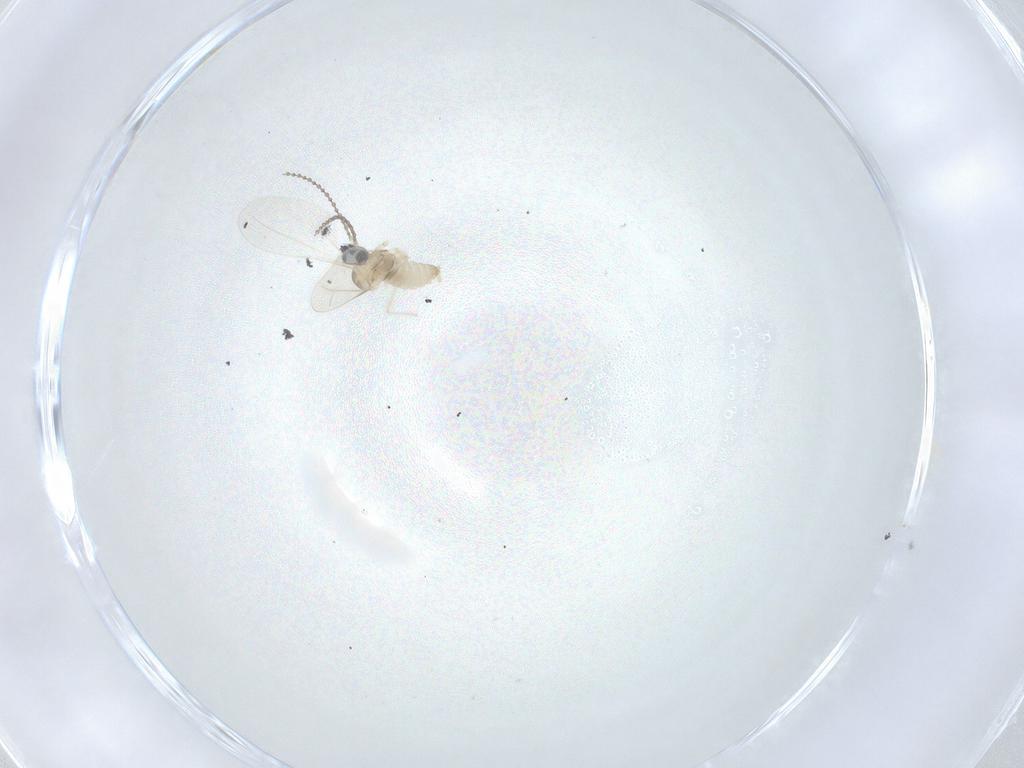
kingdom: Animalia
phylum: Arthropoda
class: Insecta
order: Diptera
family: Cecidomyiidae
